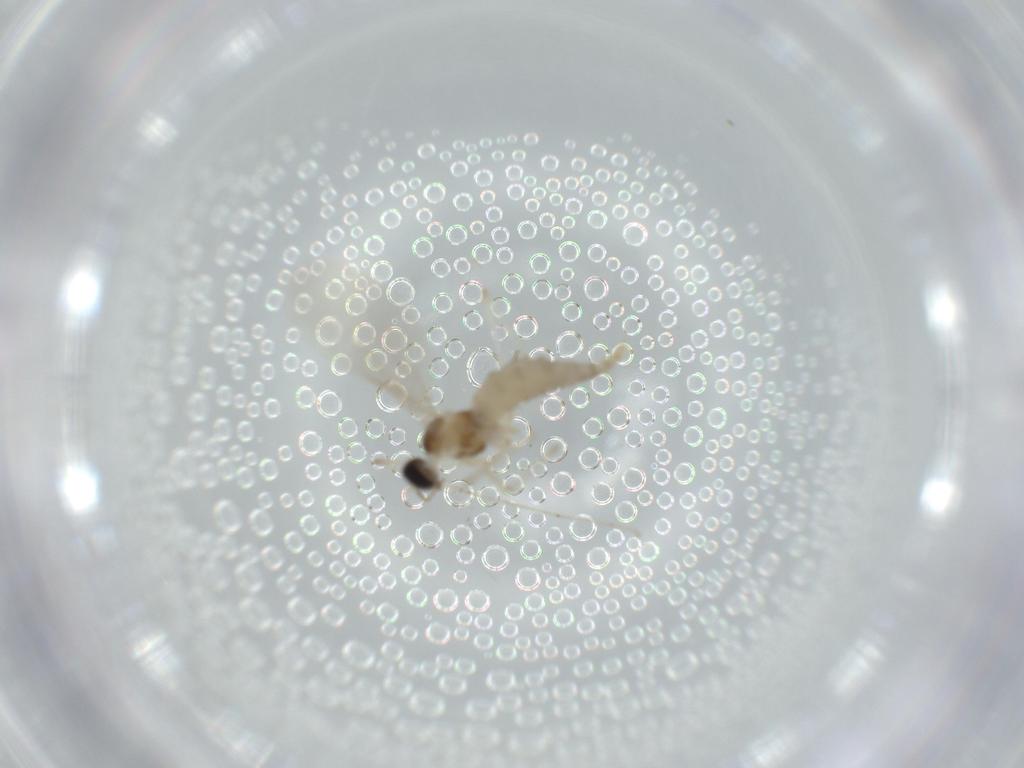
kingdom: Animalia
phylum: Arthropoda
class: Insecta
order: Diptera
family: Cecidomyiidae
